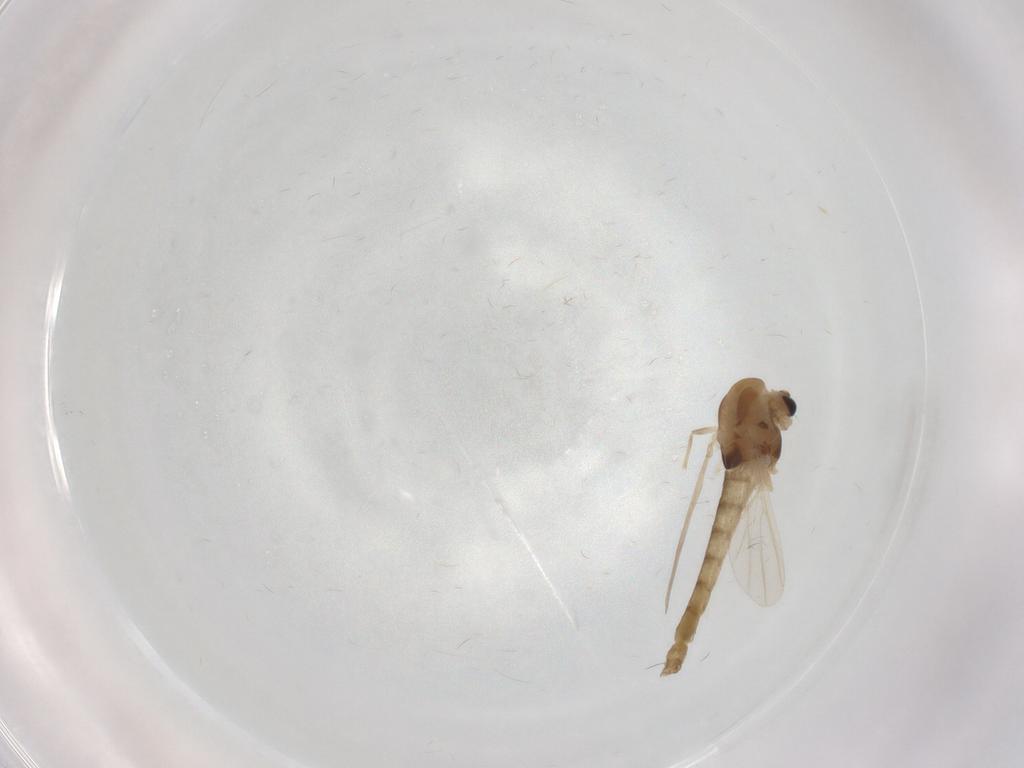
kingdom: Animalia
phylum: Arthropoda
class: Insecta
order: Diptera
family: Chironomidae
